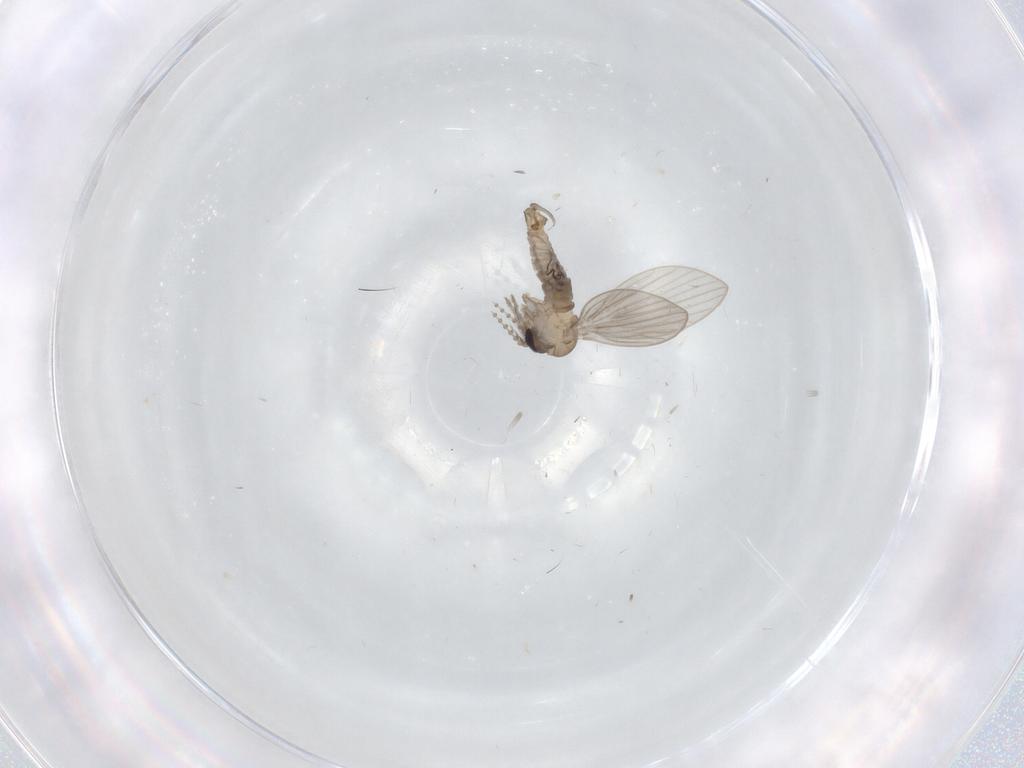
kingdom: Animalia
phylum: Arthropoda
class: Insecta
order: Diptera
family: Psychodidae
